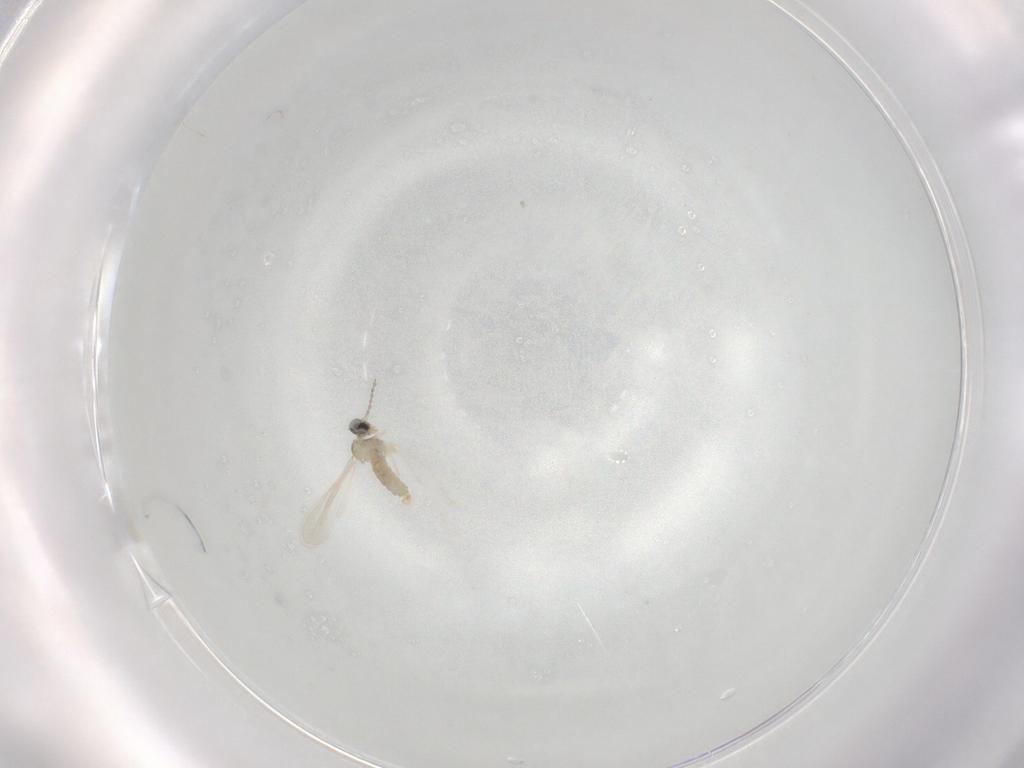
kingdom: Animalia
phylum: Arthropoda
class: Insecta
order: Diptera
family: Cecidomyiidae
